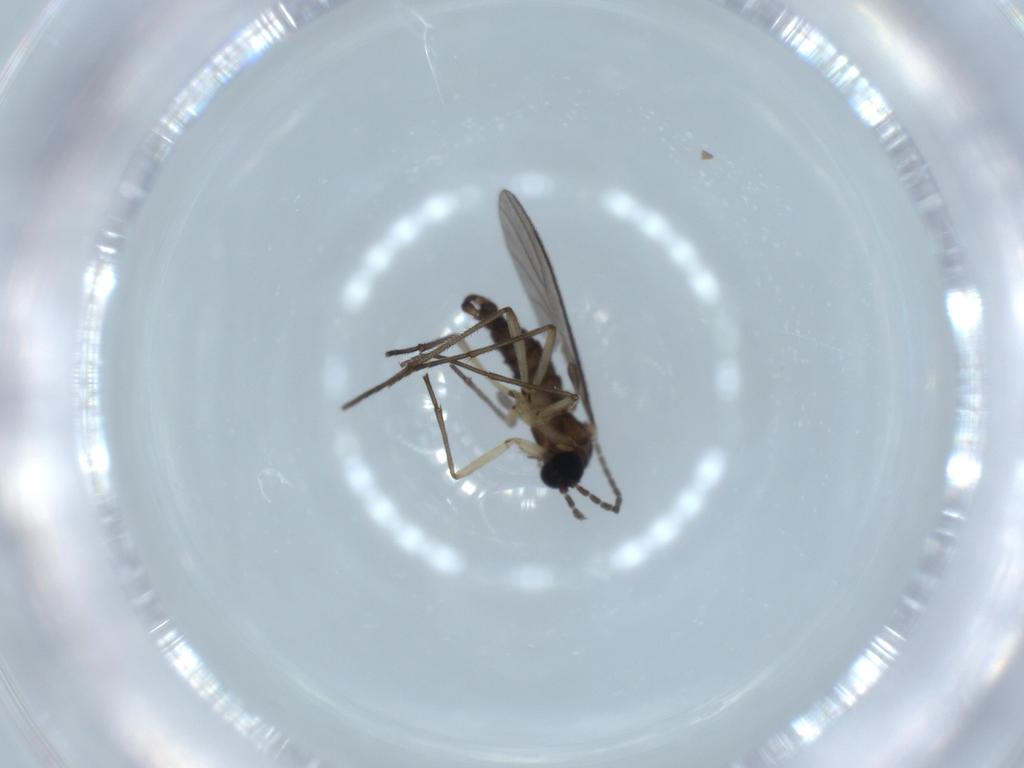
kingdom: Animalia
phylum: Arthropoda
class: Insecta
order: Diptera
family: Sciaridae
